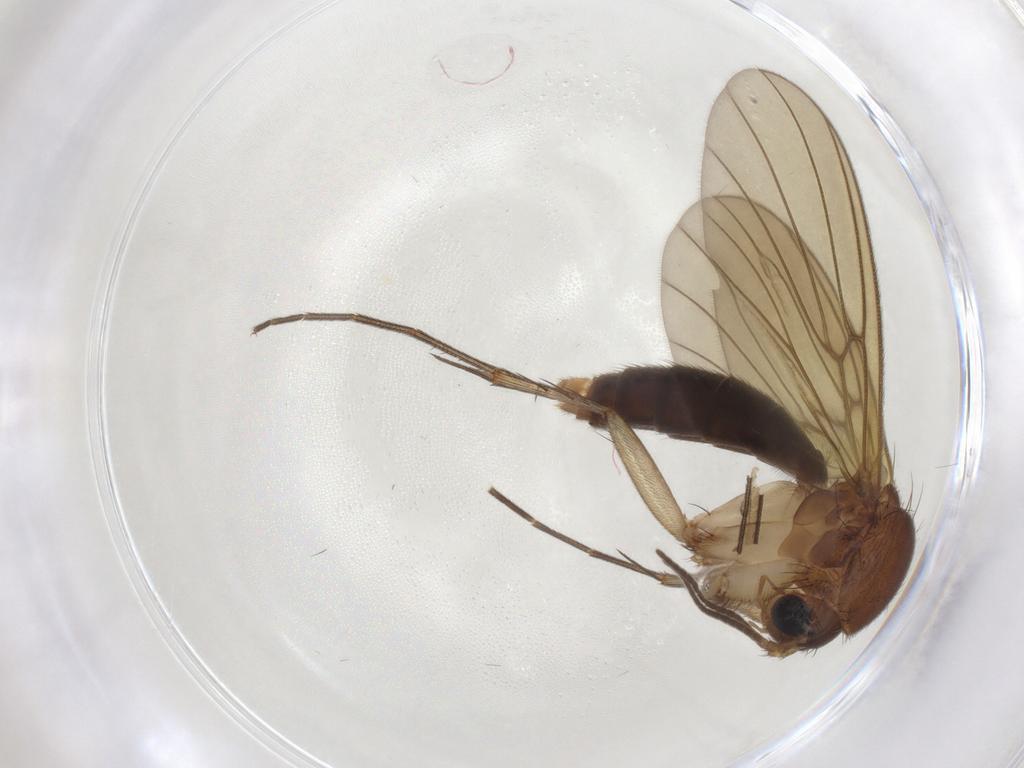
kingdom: Animalia
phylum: Arthropoda
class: Insecta
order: Diptera
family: Mycetophilidae
